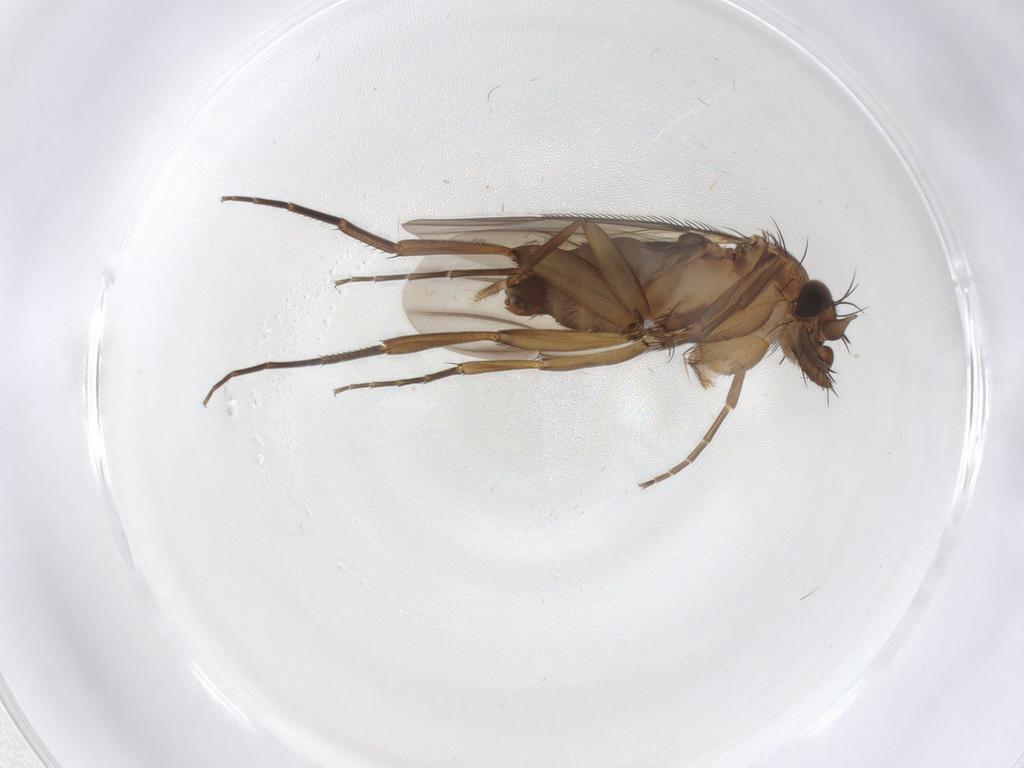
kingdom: Animalia
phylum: Arthropoda
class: Insecta
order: Diptera
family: Phoridae
